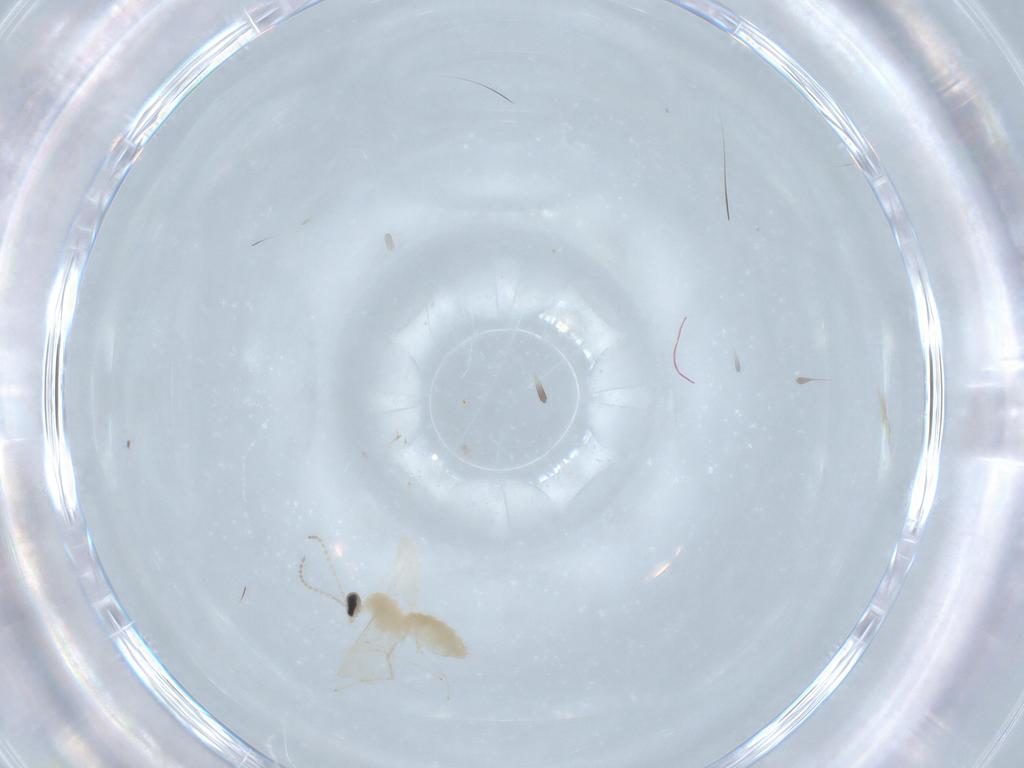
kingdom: Animalia
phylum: Arthropoda
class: Insecta
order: Diptera
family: Cecidomyiidae
